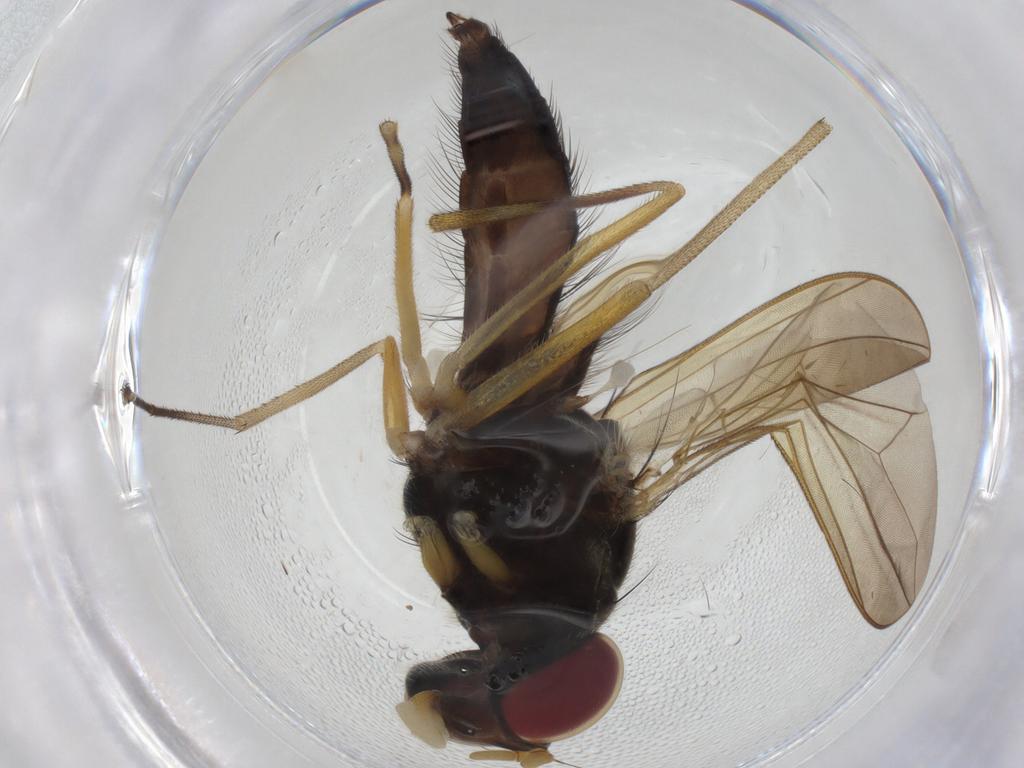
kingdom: Animalia
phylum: Arthropoda
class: Insecta
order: Diptera
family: Heleomyzidae
